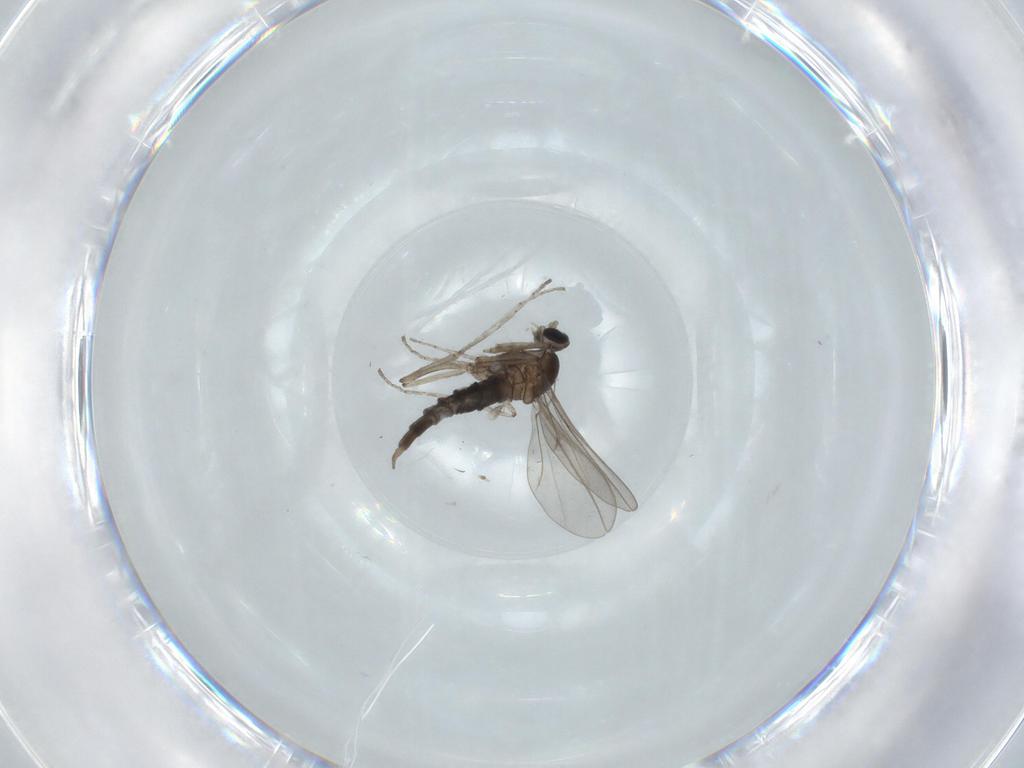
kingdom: Animalia
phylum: Arthropoda
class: Insecta
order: Diptera
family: Cecidomyiidae
